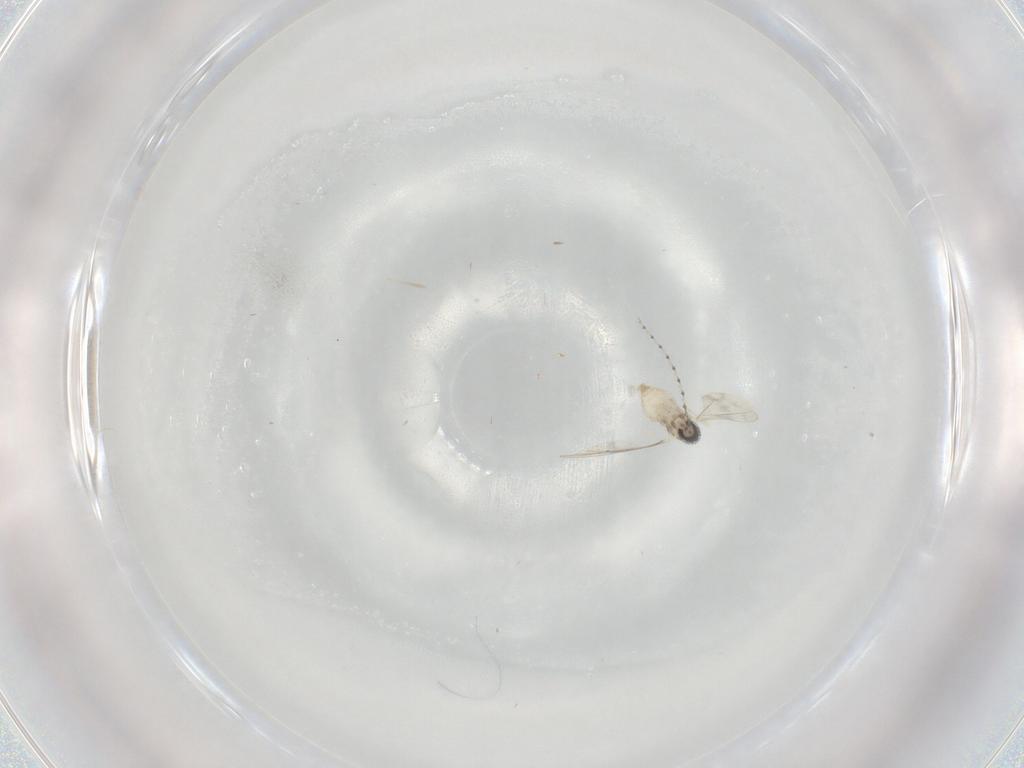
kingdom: Animalia
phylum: Arthropoda
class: Insecta
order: Diptera
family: Cecidomyiidae
